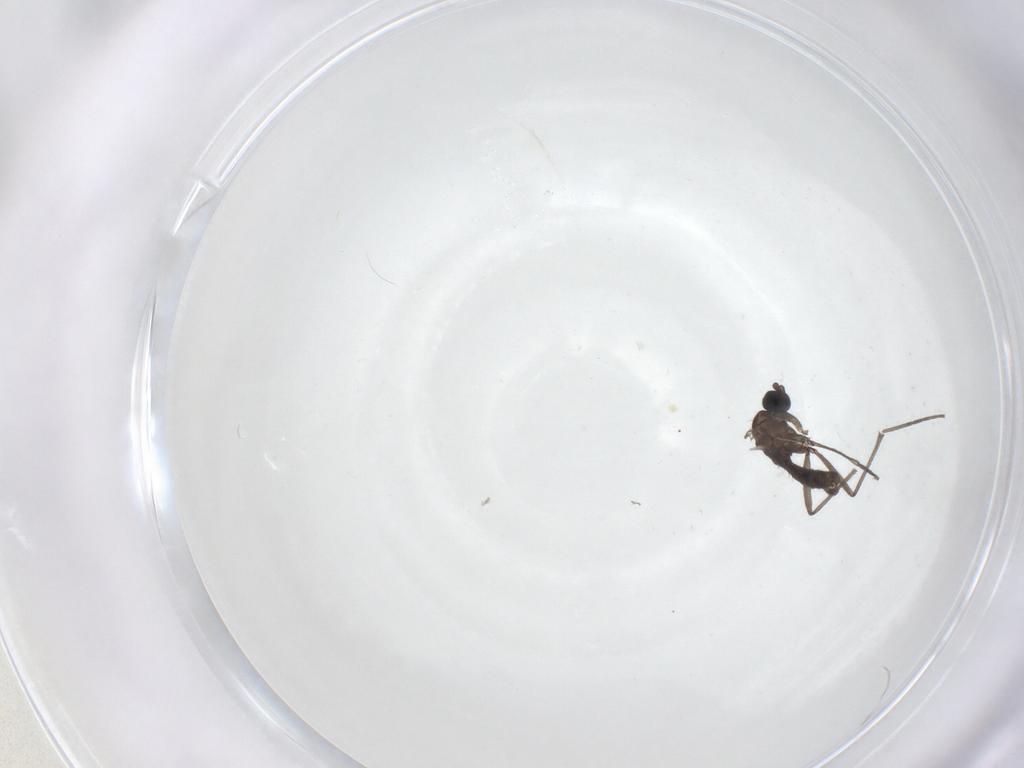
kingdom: Animalia
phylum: Arthropoda
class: Insecta
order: Diptera
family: Sciaridae
